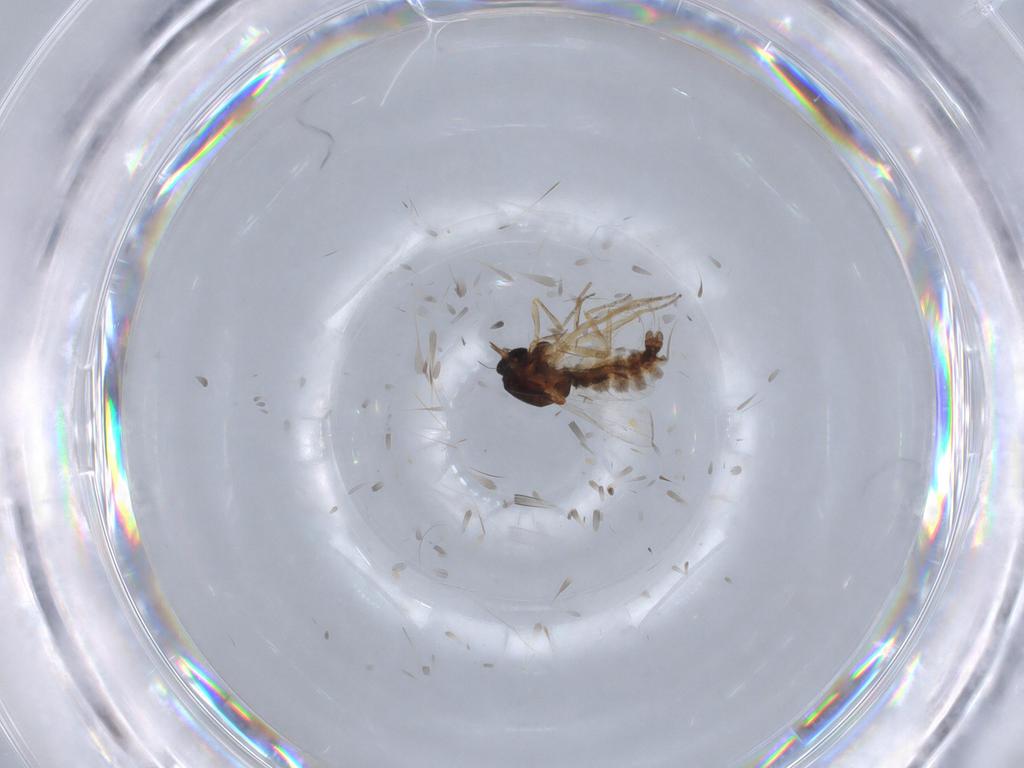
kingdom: Animalia
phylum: Arthropoda
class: Insecta
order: Diptera
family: Ceratopogonidae
